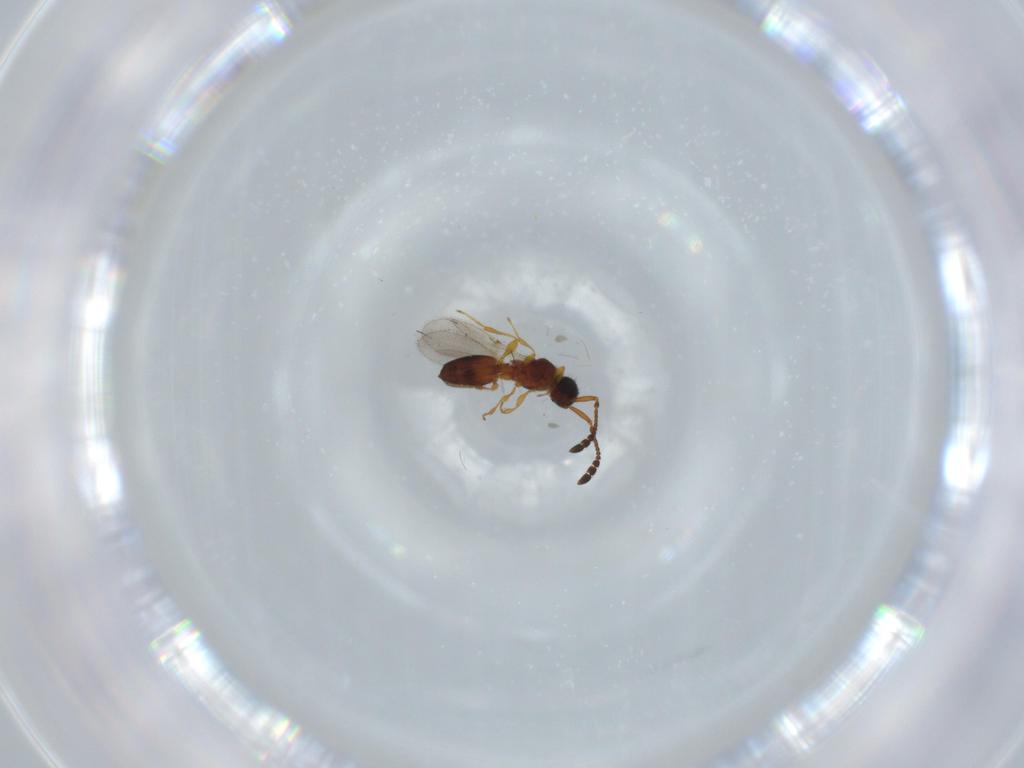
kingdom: Animalia
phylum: Arthropoda
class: Insecta
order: Hymenoptera
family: Diapriidae
